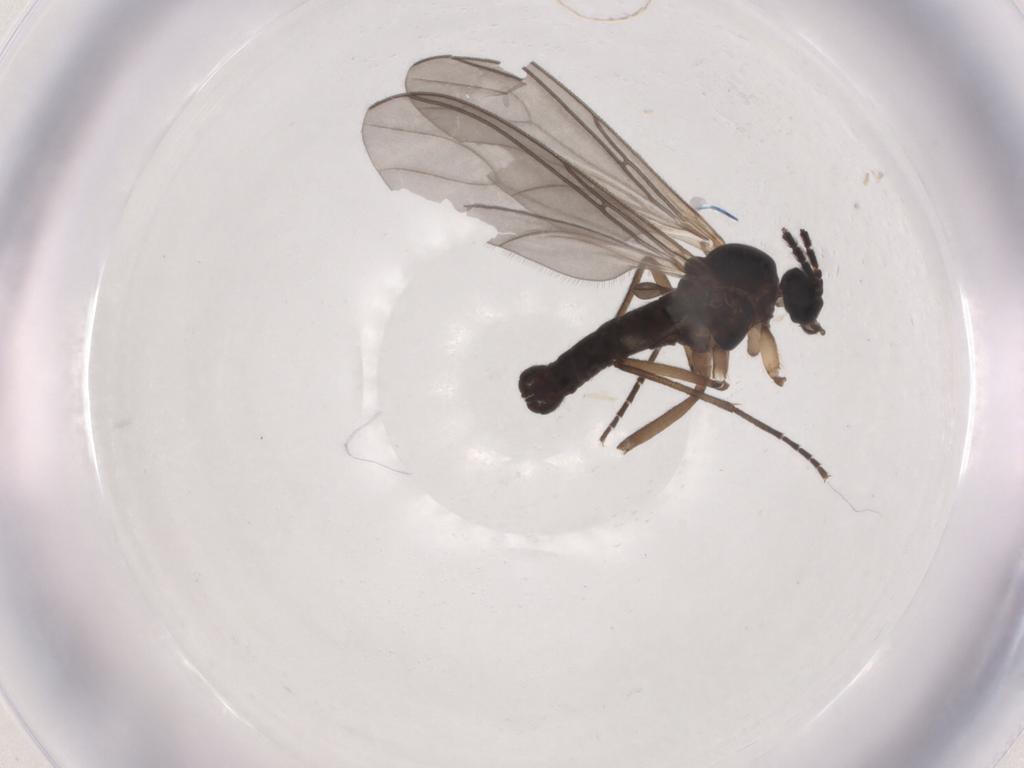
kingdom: Animalia
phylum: Arthropoda
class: Insecta
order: Diptera
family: Sciaridae
